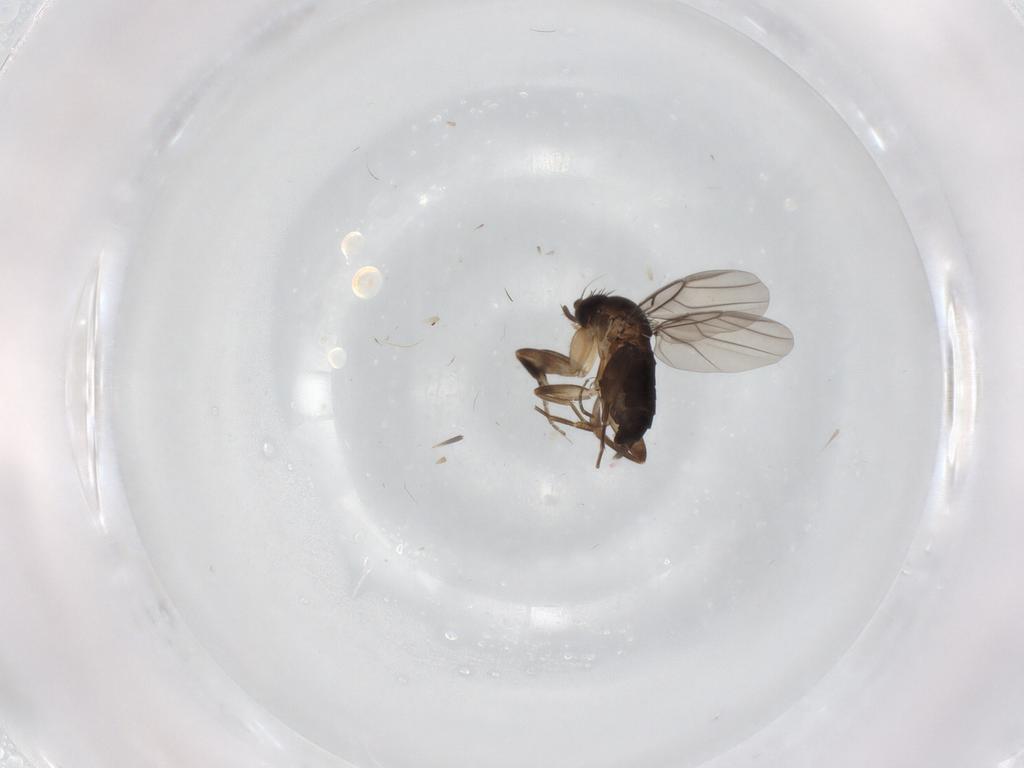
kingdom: Animalia
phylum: Arthropoda
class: Insecta
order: Diptera
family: Phoridae
